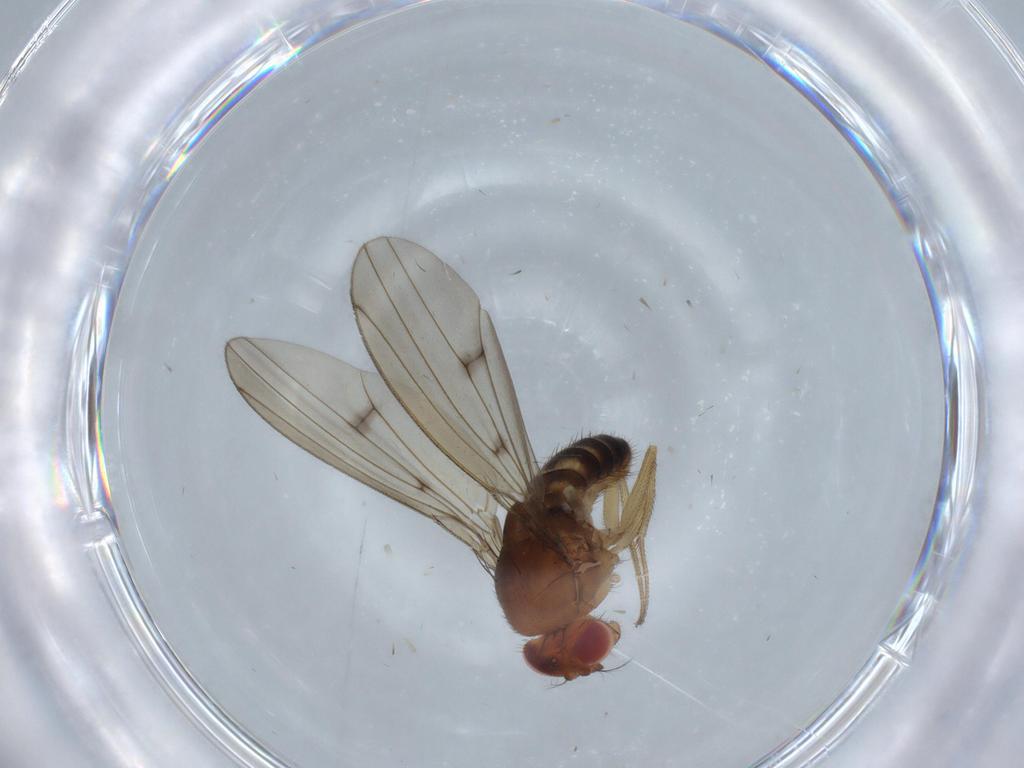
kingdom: Animalia
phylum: Arthropoda
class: Insecta
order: Diptera
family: Drosophilidae
